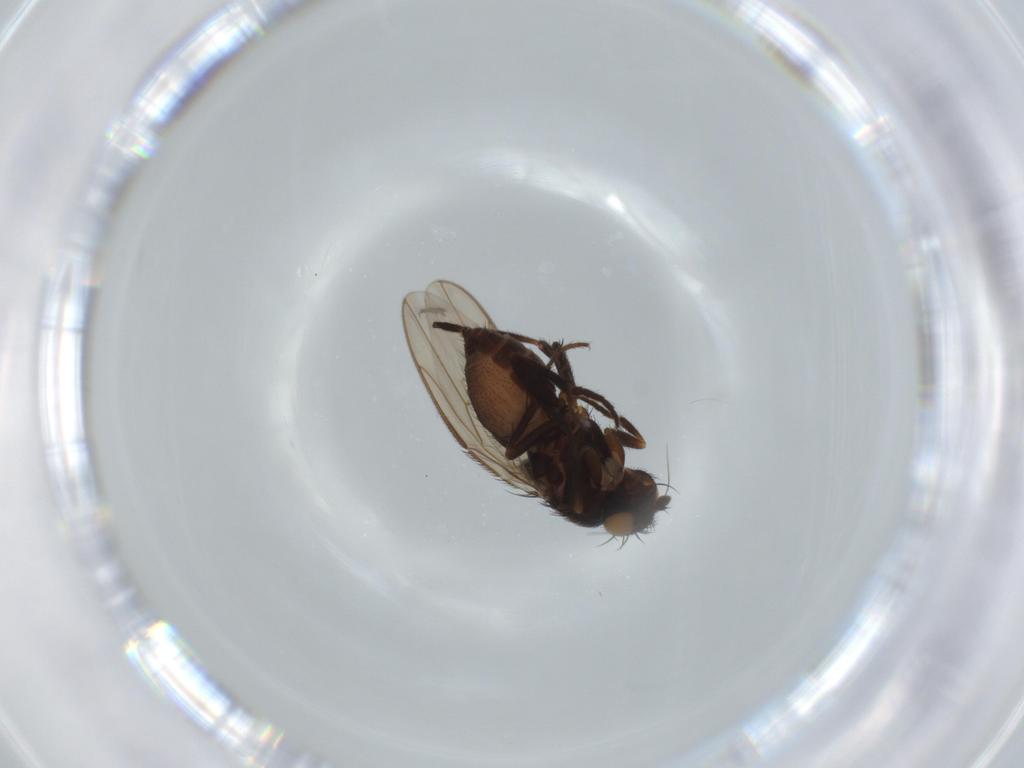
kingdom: Animalia
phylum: Arthropoda
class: Insecta
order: Diptera
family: Sphaeroceridae
